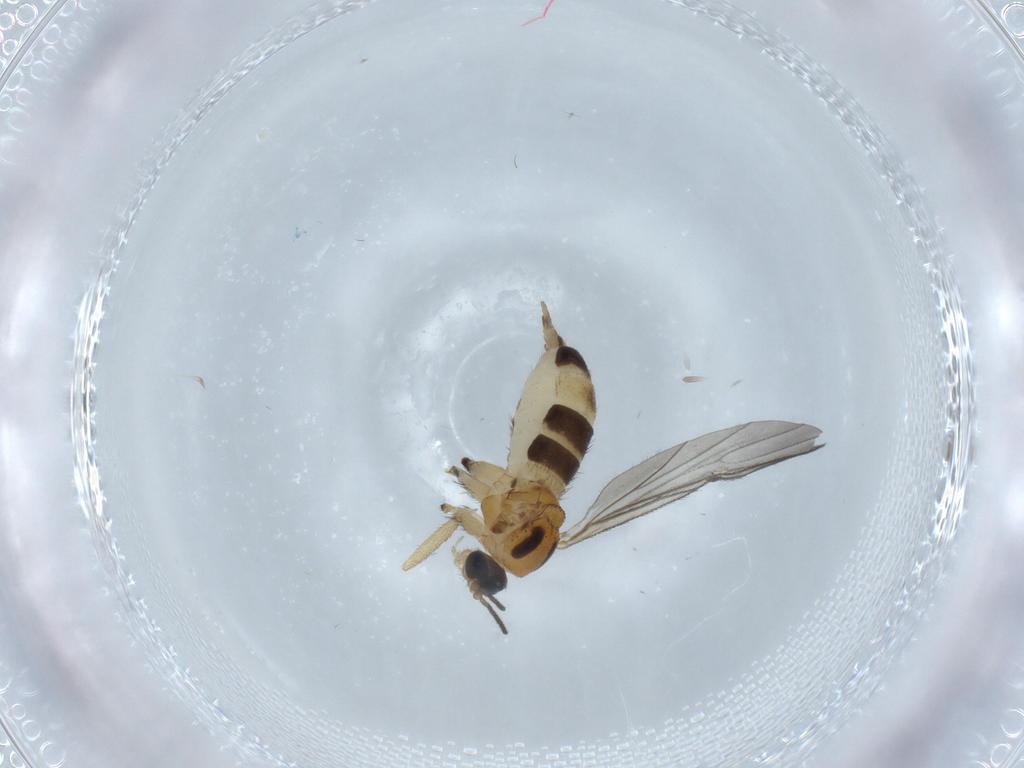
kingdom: Animalia
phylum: Arthropoda
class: Insecta
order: Diptera
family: Sciaridae
